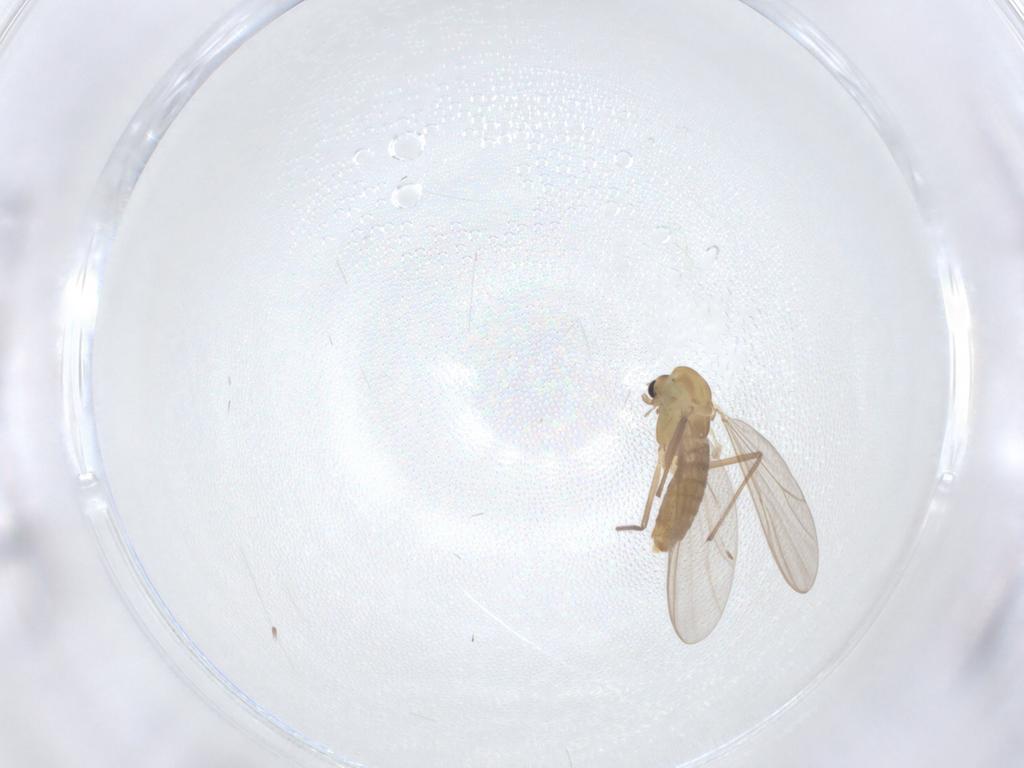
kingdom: Animalia
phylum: Arthropoda
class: Insecta
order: Diptera
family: Chironomidae
